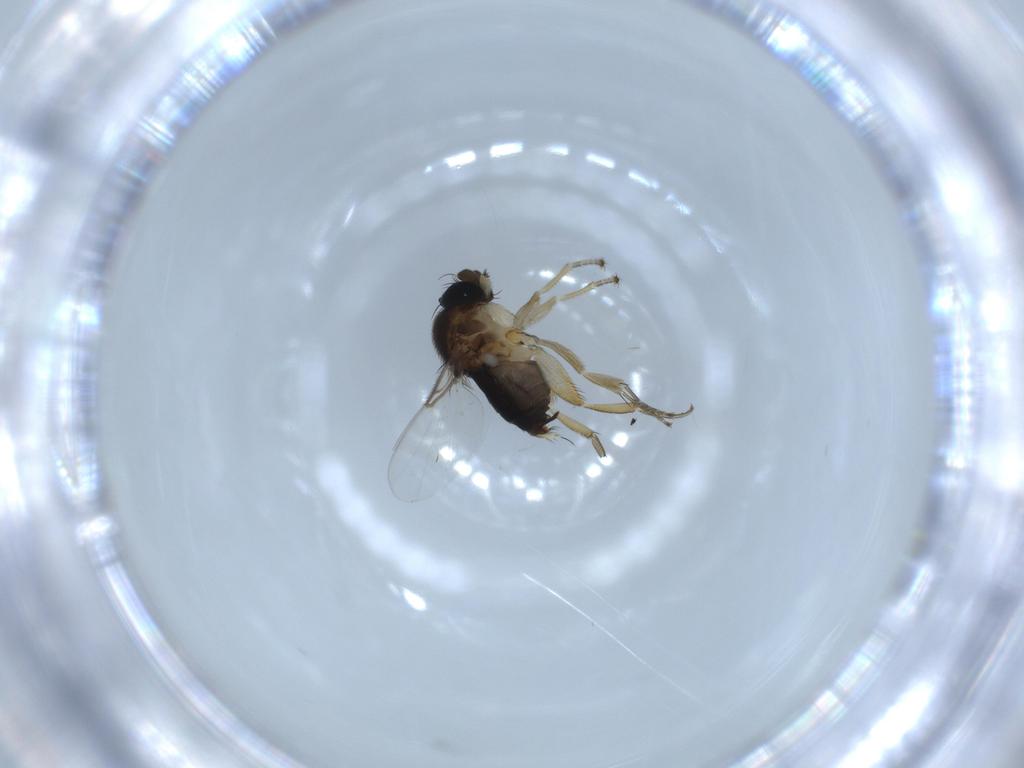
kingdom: Animalia
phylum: Arthropoda
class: Insecta
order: Diptera
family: Phoridae
